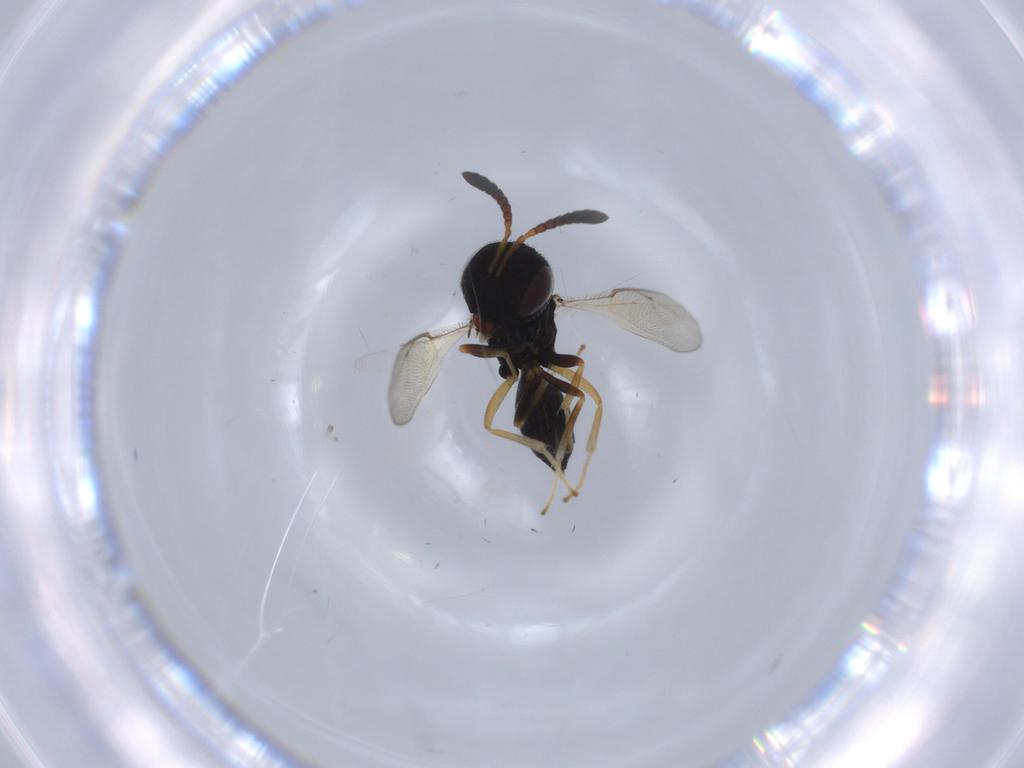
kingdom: Animalia
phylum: Arthropoda
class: Insecta
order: Hymenoptera
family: Pteromalidae
